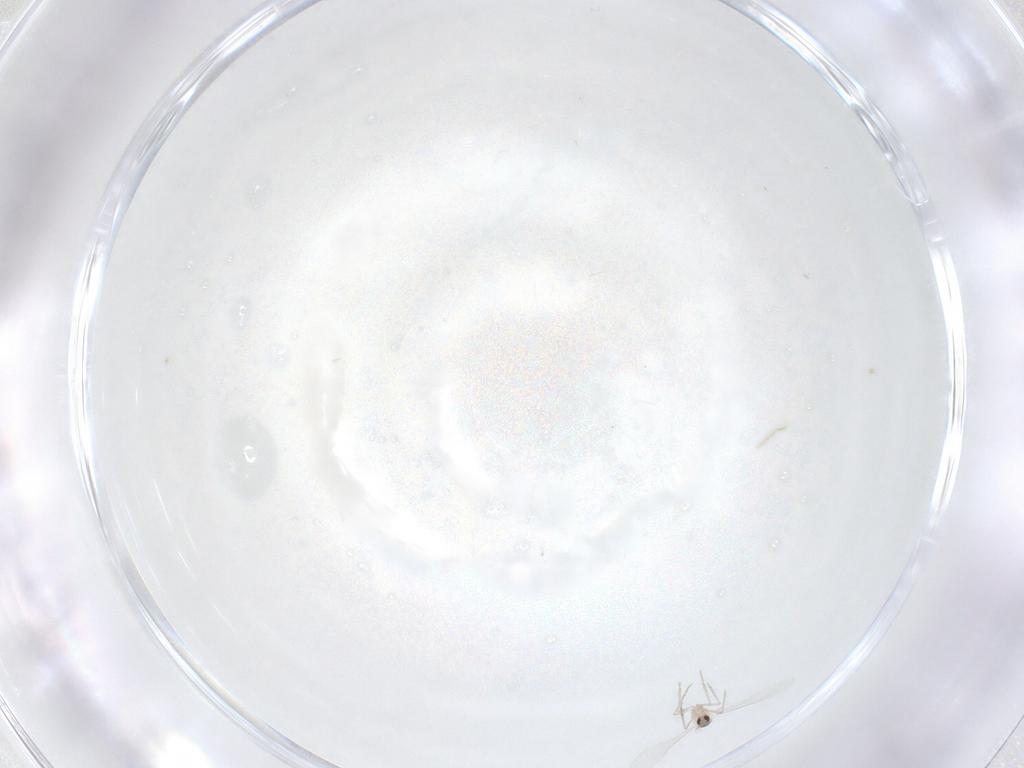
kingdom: Animalia
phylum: Arthropoda
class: Insecta
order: Diptera
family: Cecidomyiidae
